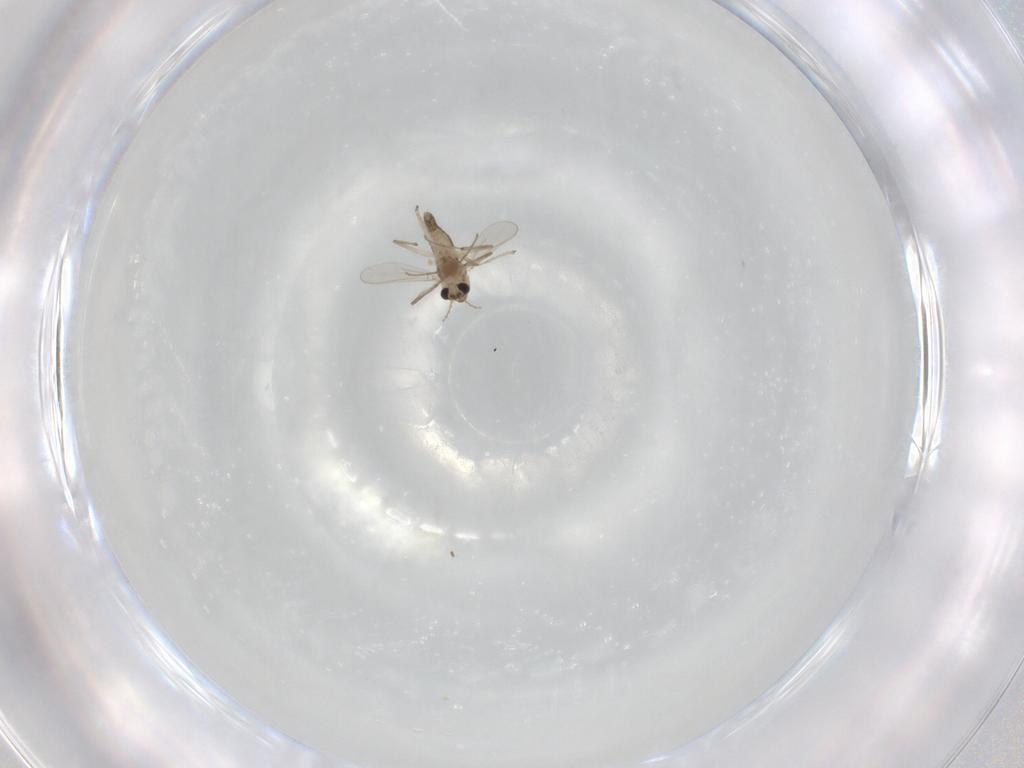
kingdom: Animalia
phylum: Arthropoda
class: Insecta
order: Diptera
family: Chironomidae
